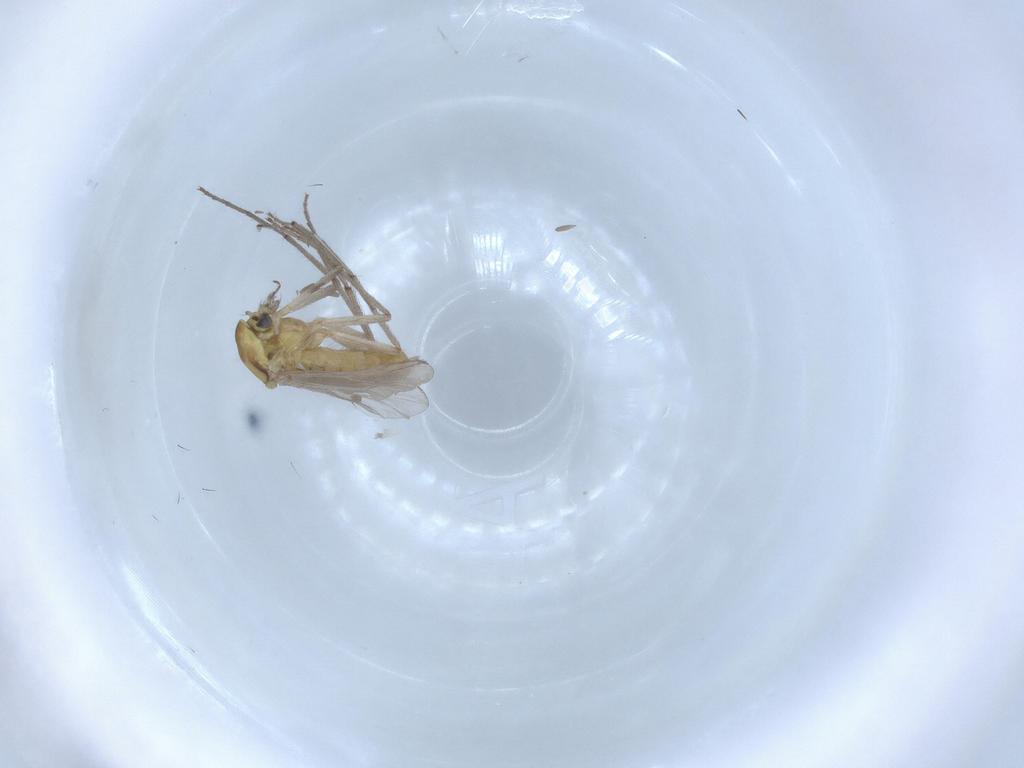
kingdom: Animalia
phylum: Arthropoda
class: Insecta
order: Diptera
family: Chironomidae
